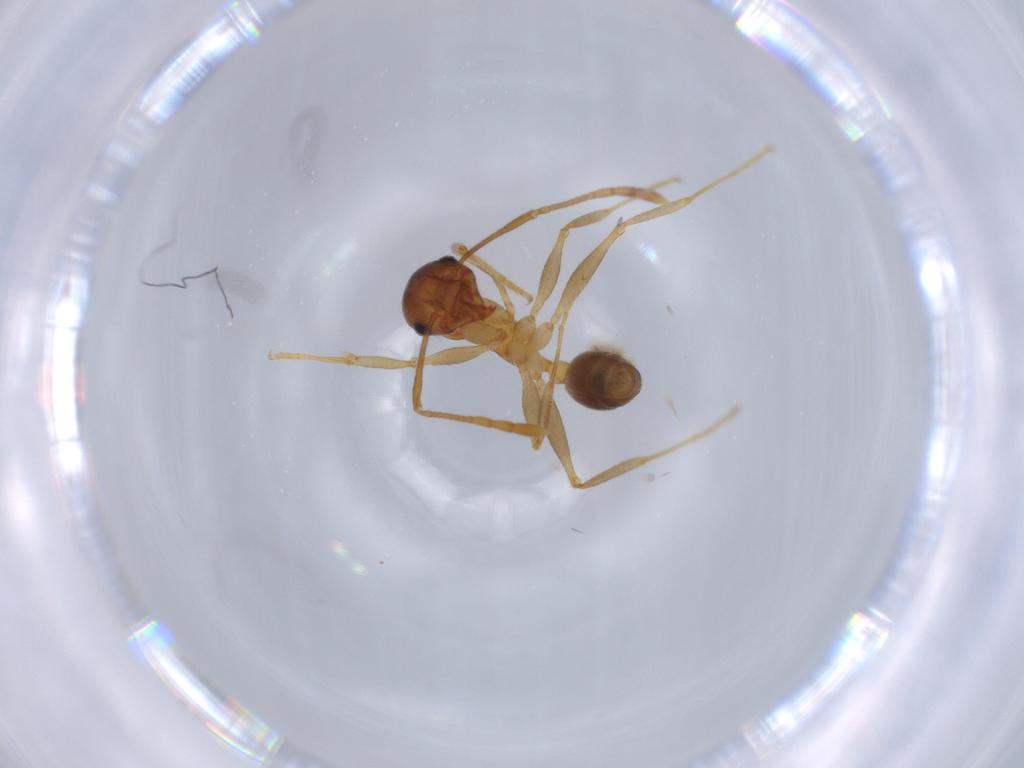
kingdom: Animalia
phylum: Arthropoda
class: Insecta
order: Hymenoptera
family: Formicidae
